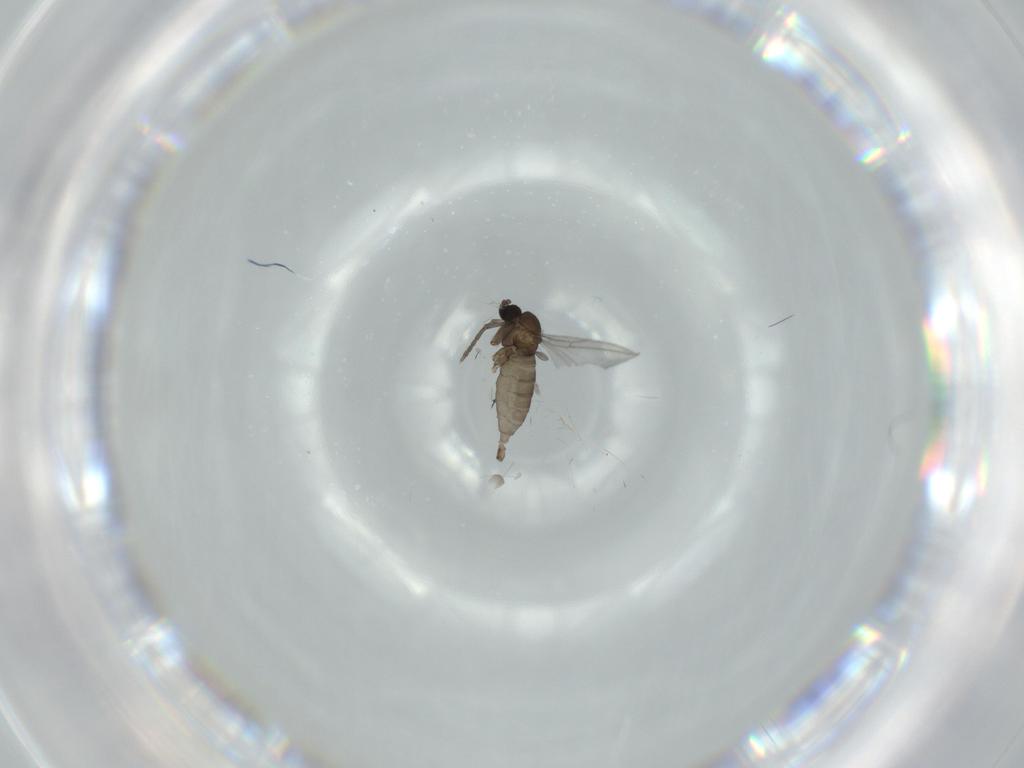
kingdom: Animalia
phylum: Arthropoda
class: Insecta
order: Diptera
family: Sciaridae
